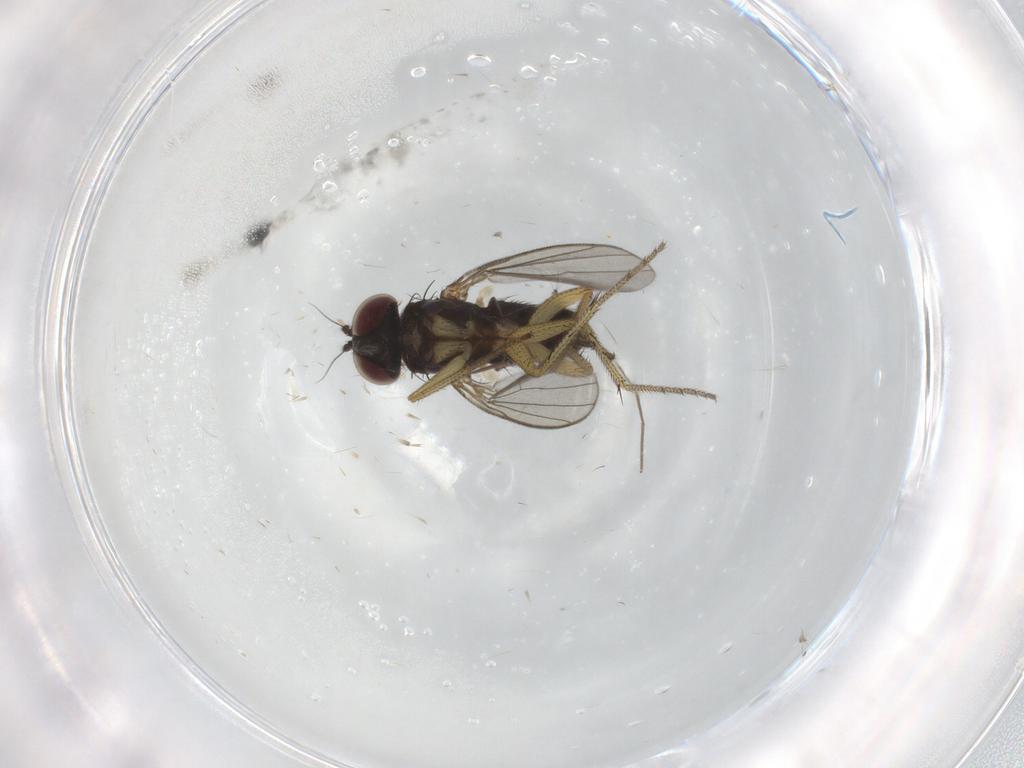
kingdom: Animalia
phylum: Arthropoda
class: Insecta
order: Diptera
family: Dolichopodidae
